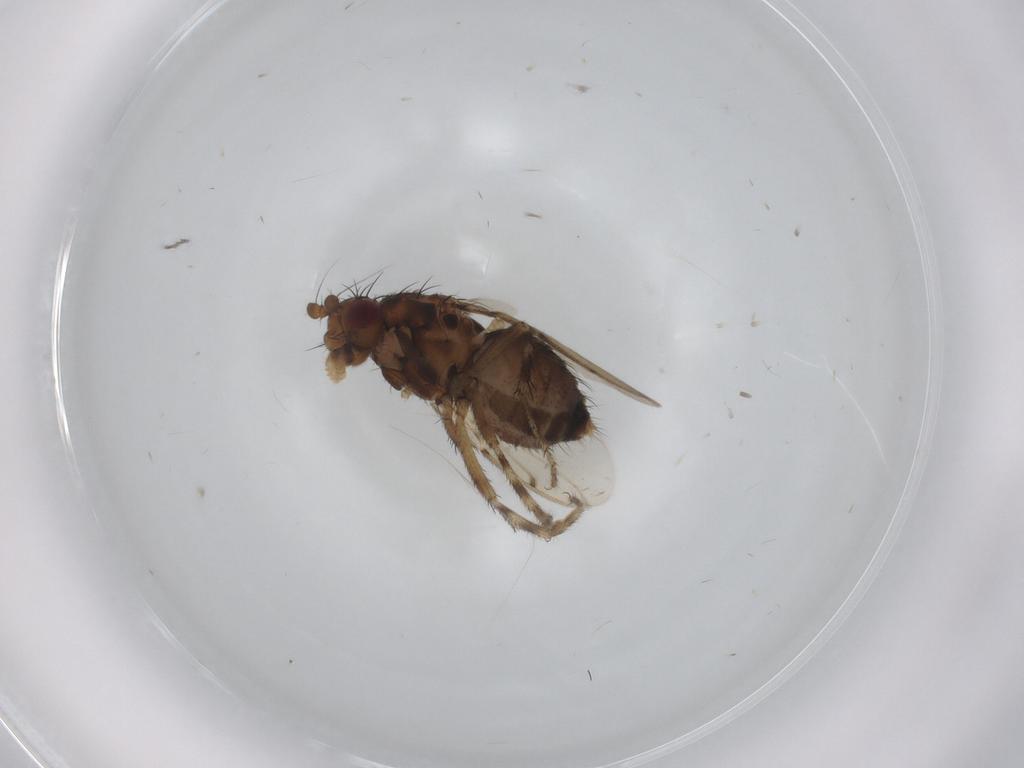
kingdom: Animalia
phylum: Arthropoda
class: Insecta
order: Diptera
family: Sphaeroceridae
